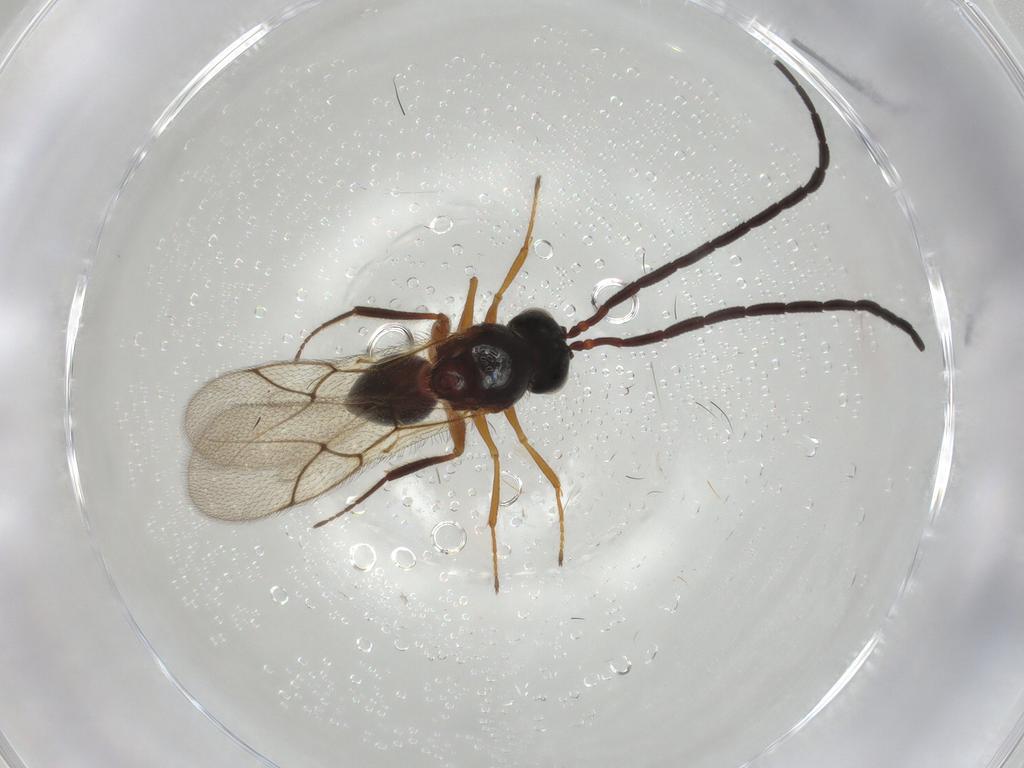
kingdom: Animalia
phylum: Arthropoda
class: Insecta
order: Hymenoptera
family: Figitidae
